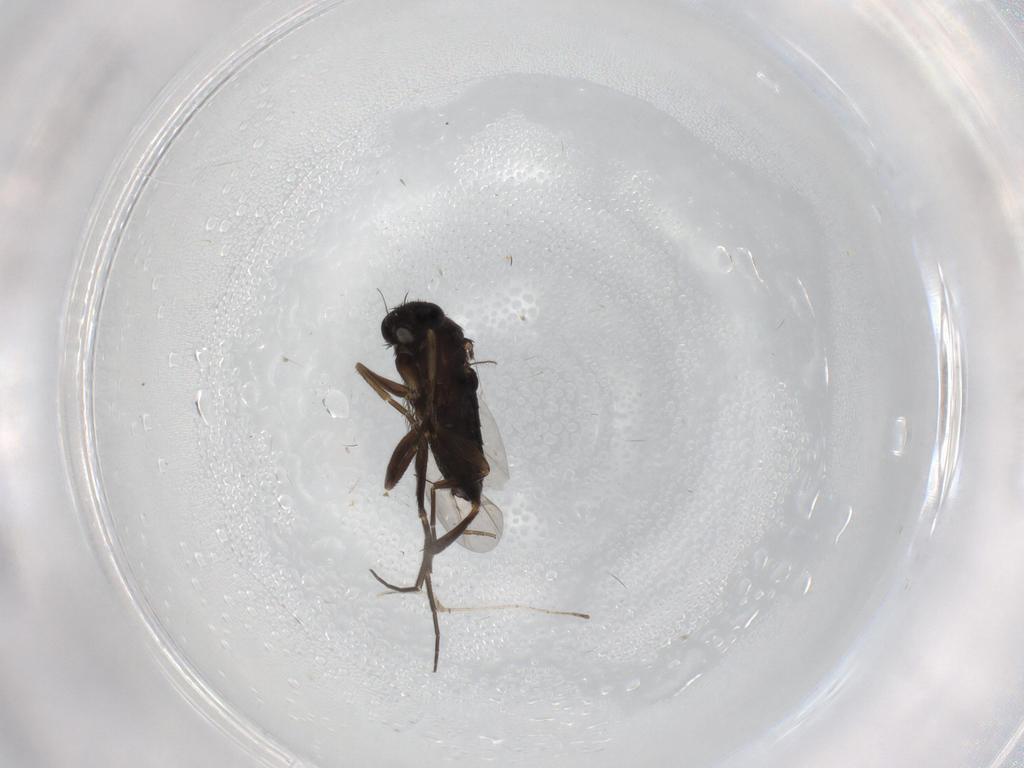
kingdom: Animalia
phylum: Arthropoda
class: Insecta
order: Diptera
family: Phoridae
